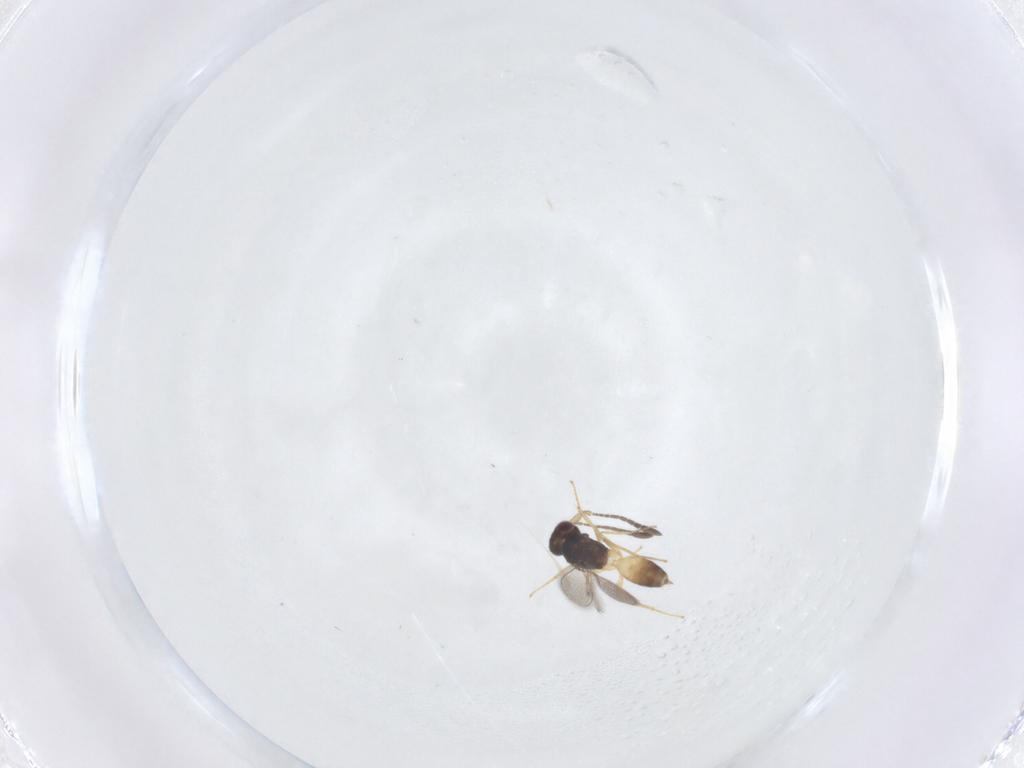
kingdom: Animalia
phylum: Arthropoda
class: Insecta
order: Hymenoptera
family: Mymaridae
